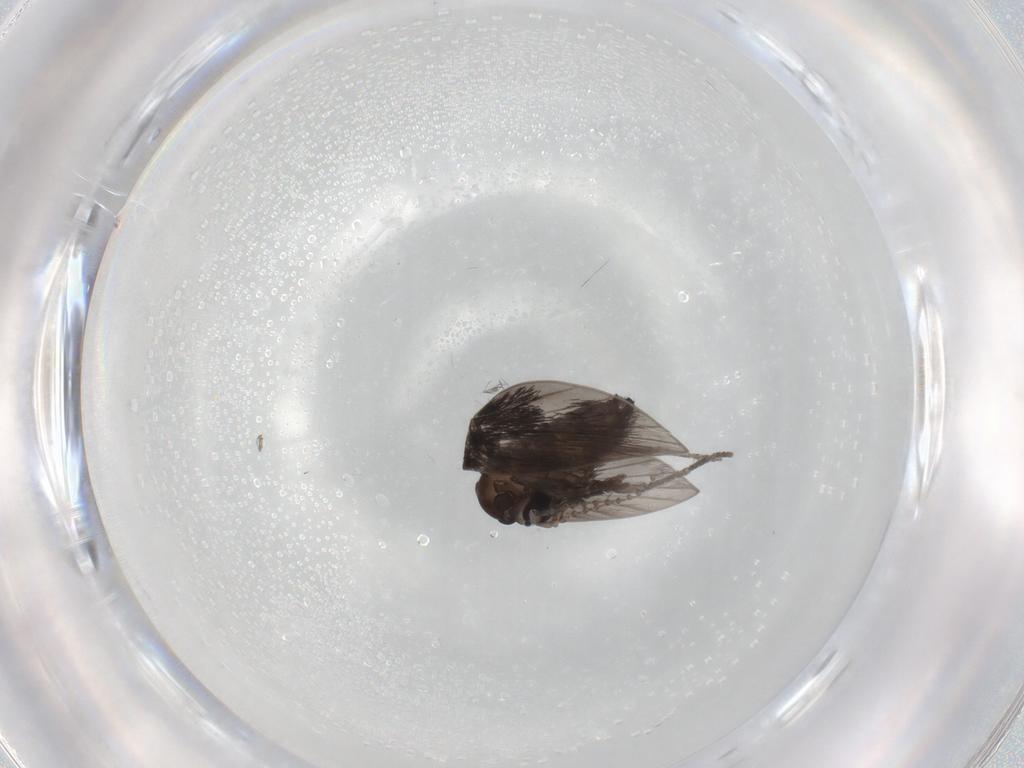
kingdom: Animalia
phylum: Arthropoda
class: Insecta
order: Diptera
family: Psychodidae
